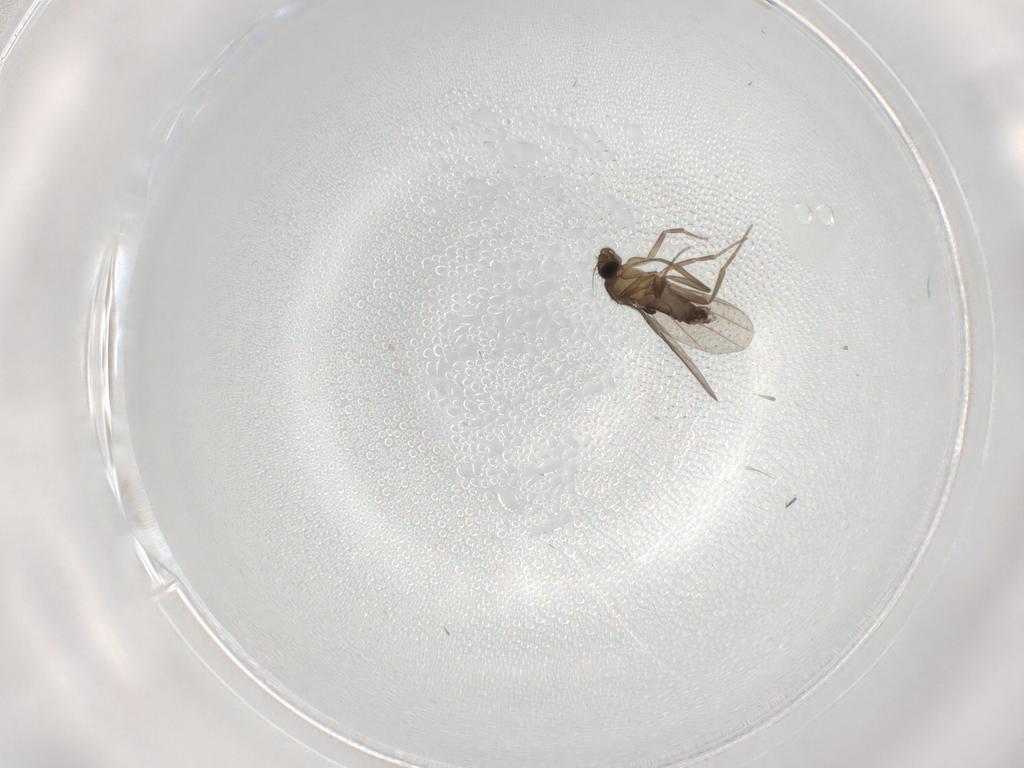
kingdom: Animalia
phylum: Arthropoda
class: Insecta
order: Diptera
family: Phoridae
